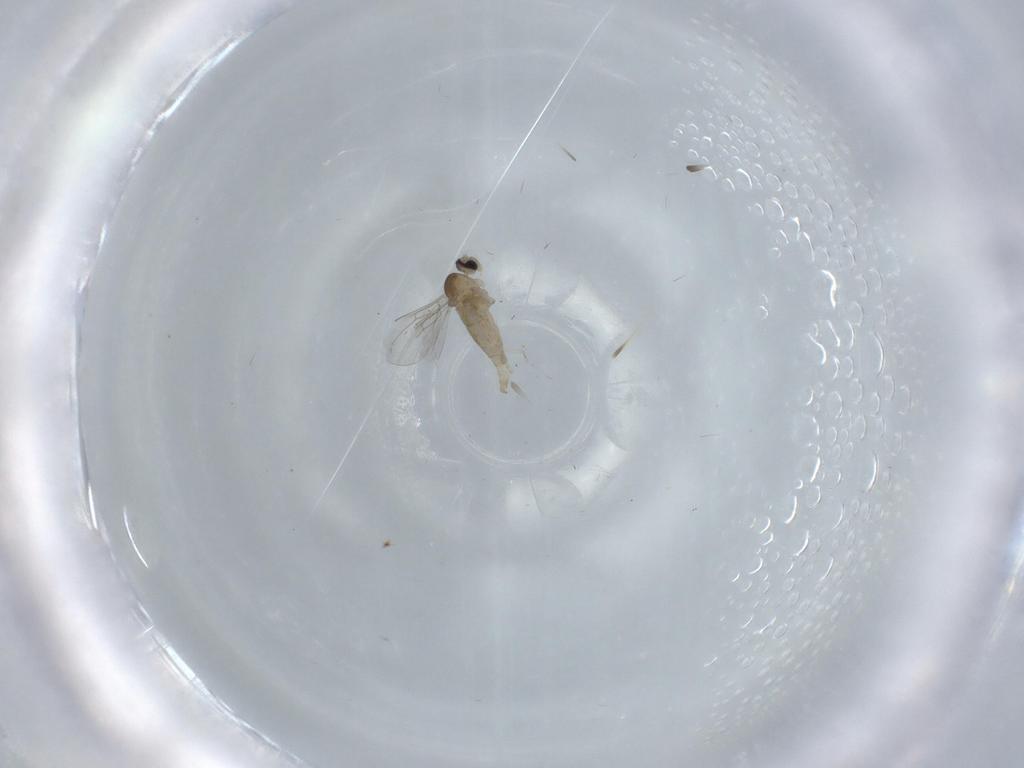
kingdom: Animalia
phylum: Arthropoda
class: Insecta
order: Diptera
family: Cecidomyiidae
